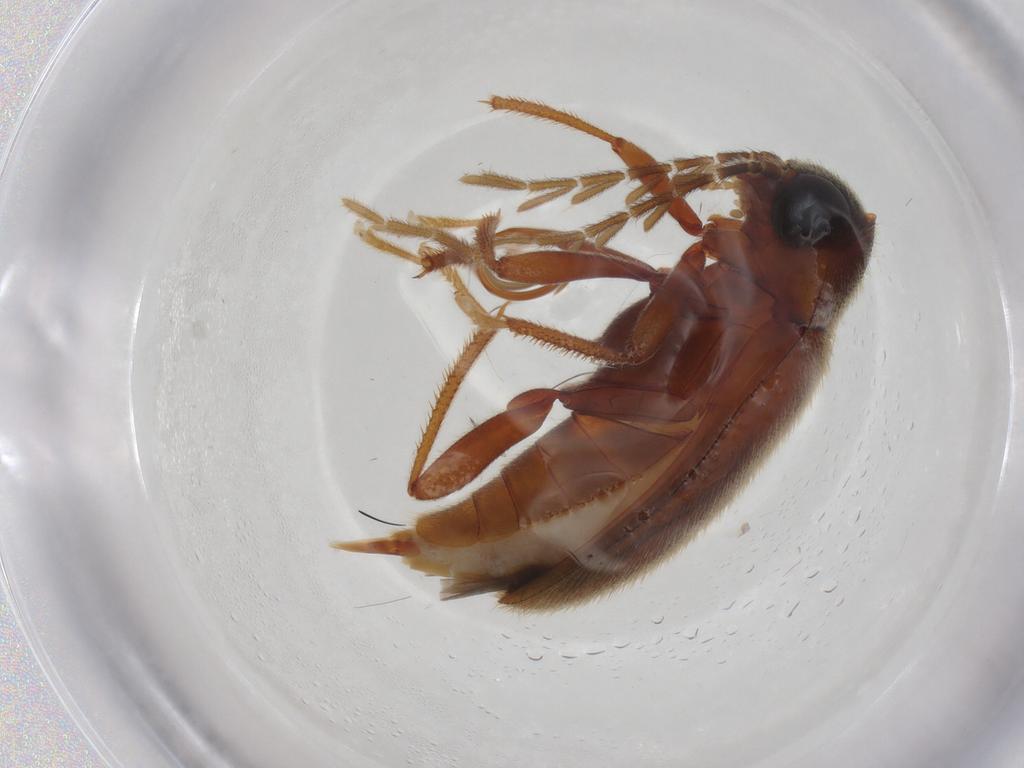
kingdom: Animalia
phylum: Arthropoda
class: Insecta
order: Coleoptera
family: Ptilodactylidae
